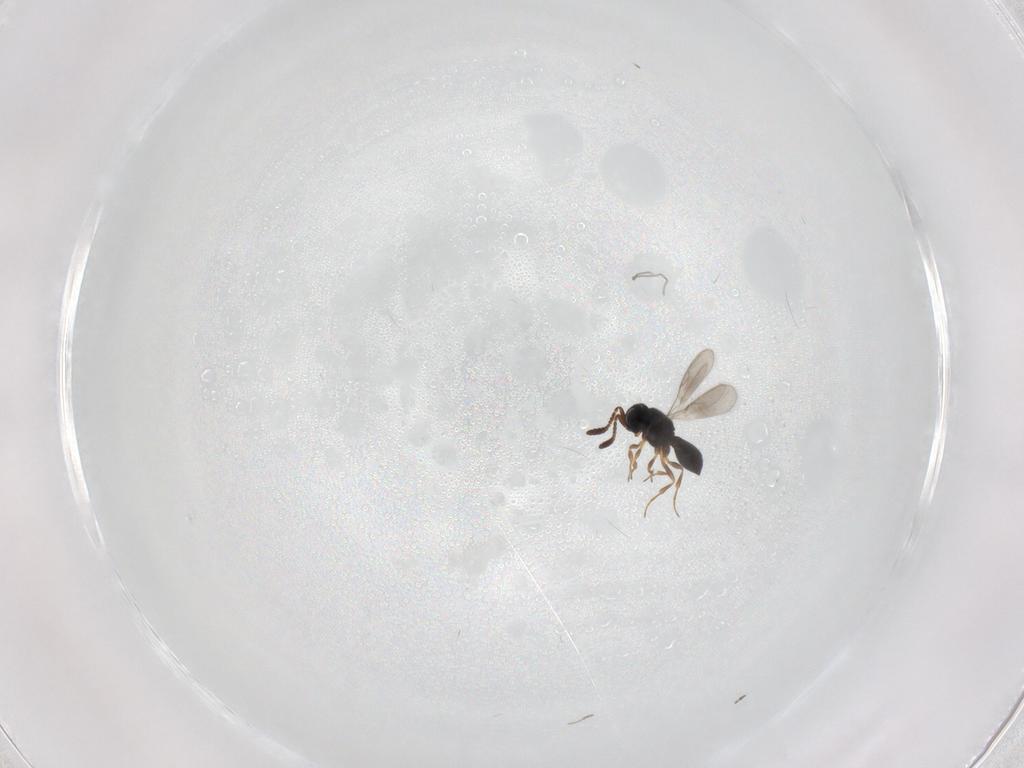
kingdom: Animalia
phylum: Arthropoda
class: Insecta
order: Hymenoptera
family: Scelionidae
